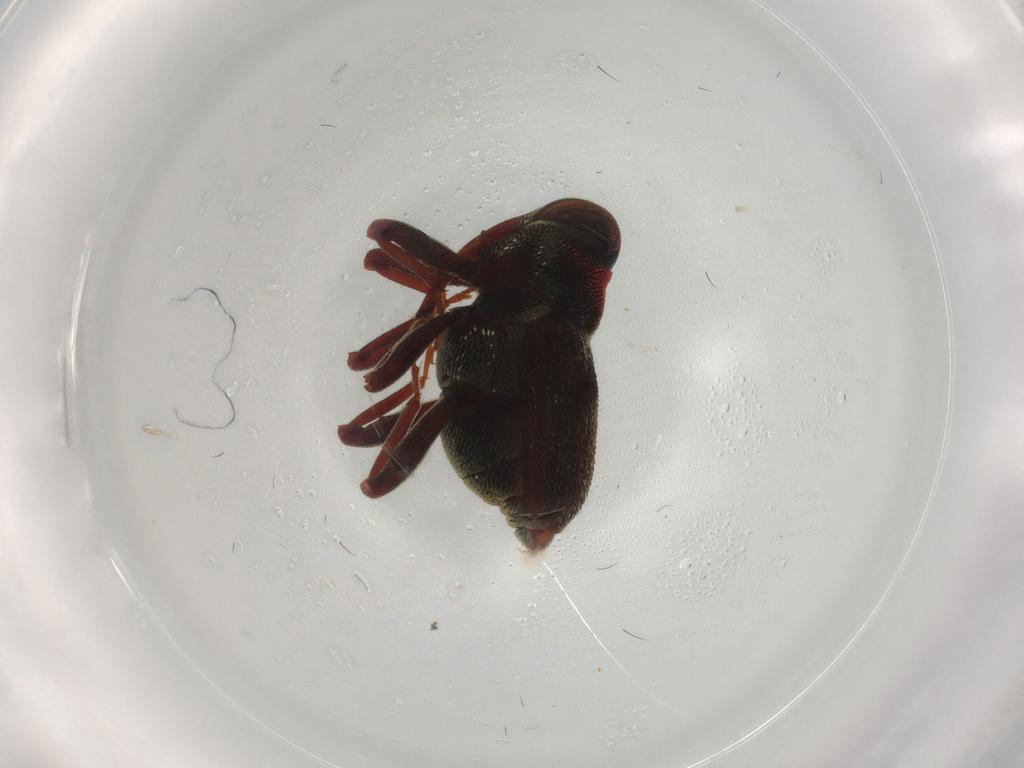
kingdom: Animalia
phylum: Arthropoda
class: Insecta
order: Coleoptera
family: Curculionidae
